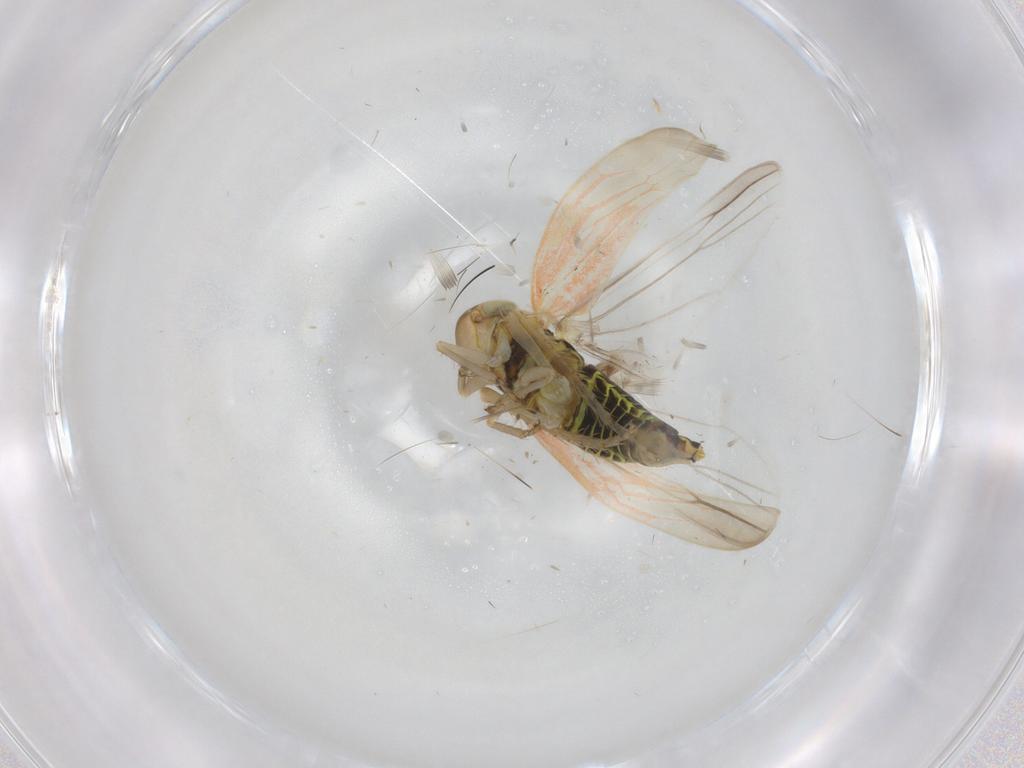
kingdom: Animalia
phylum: Arthropoda
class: Insecta
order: Hemiptera
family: Cicadellidae
